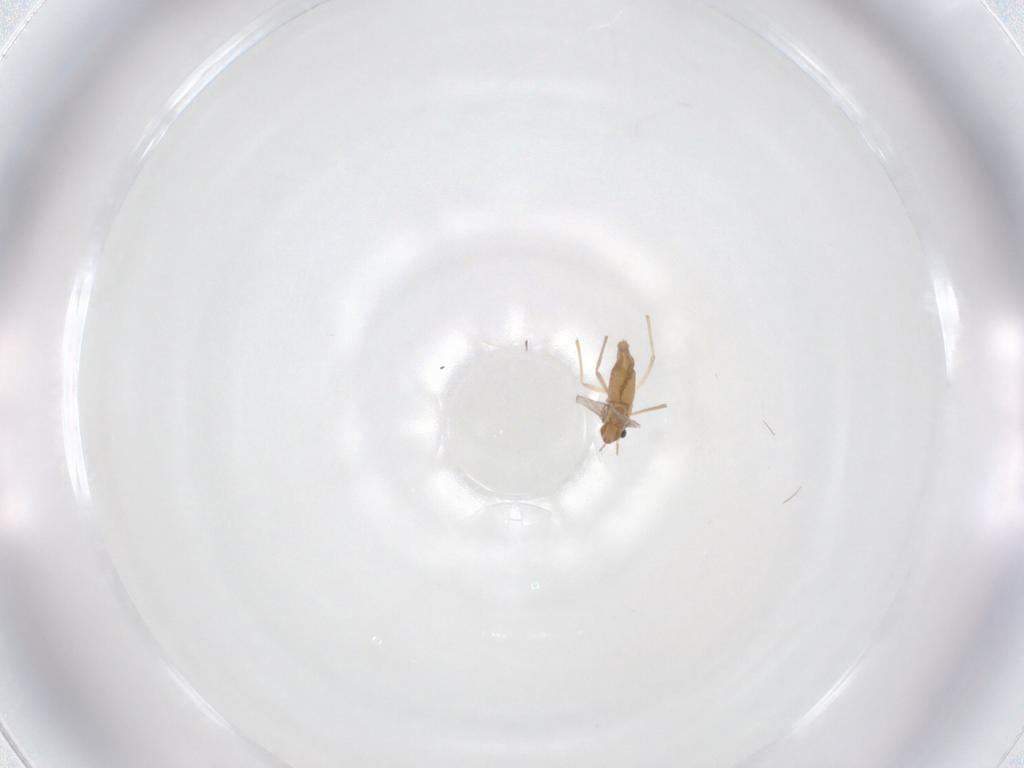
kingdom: Animalia
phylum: Arthropoda
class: Insecta
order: Diptera
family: Chironomidae
